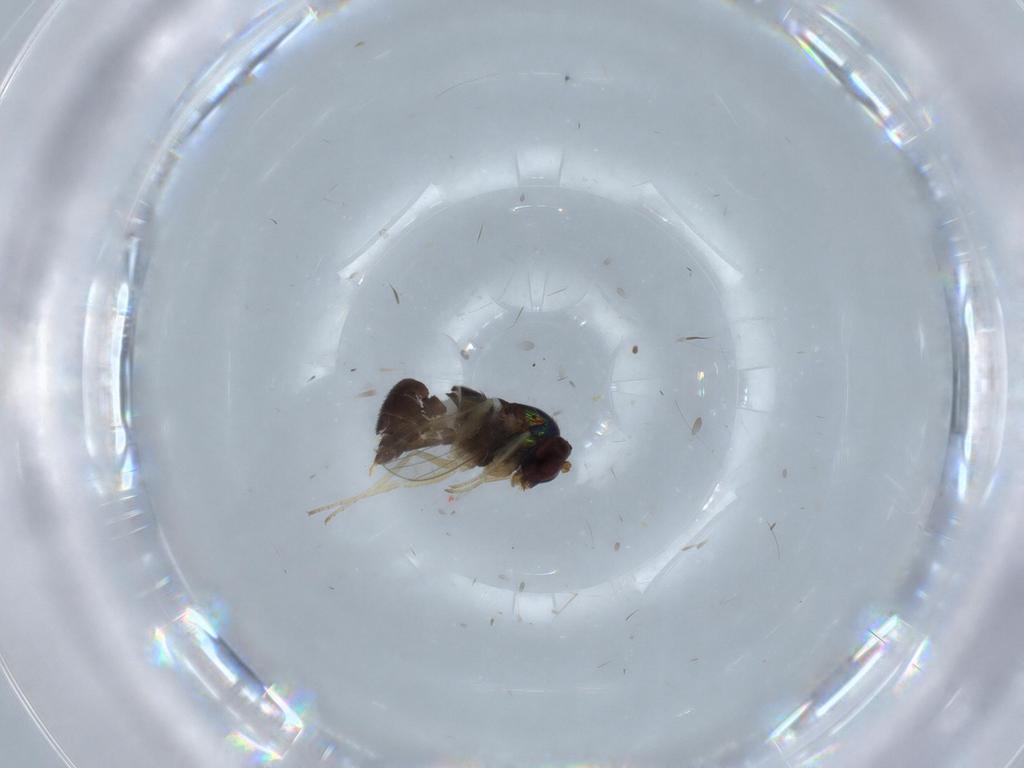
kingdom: Animalia
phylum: Arthropoda
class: Insecta
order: Diptera
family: Dolichopodidae
